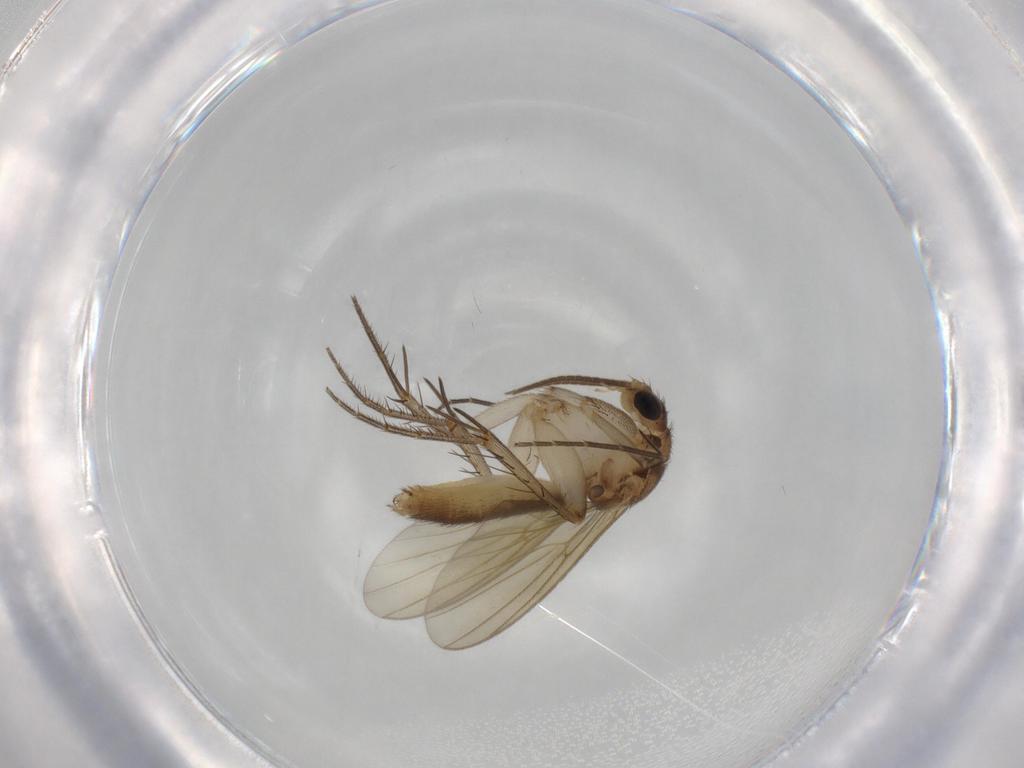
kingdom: Animalia
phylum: Arthropoda
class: Insecta
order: Diptera
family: Mycetophilidae
